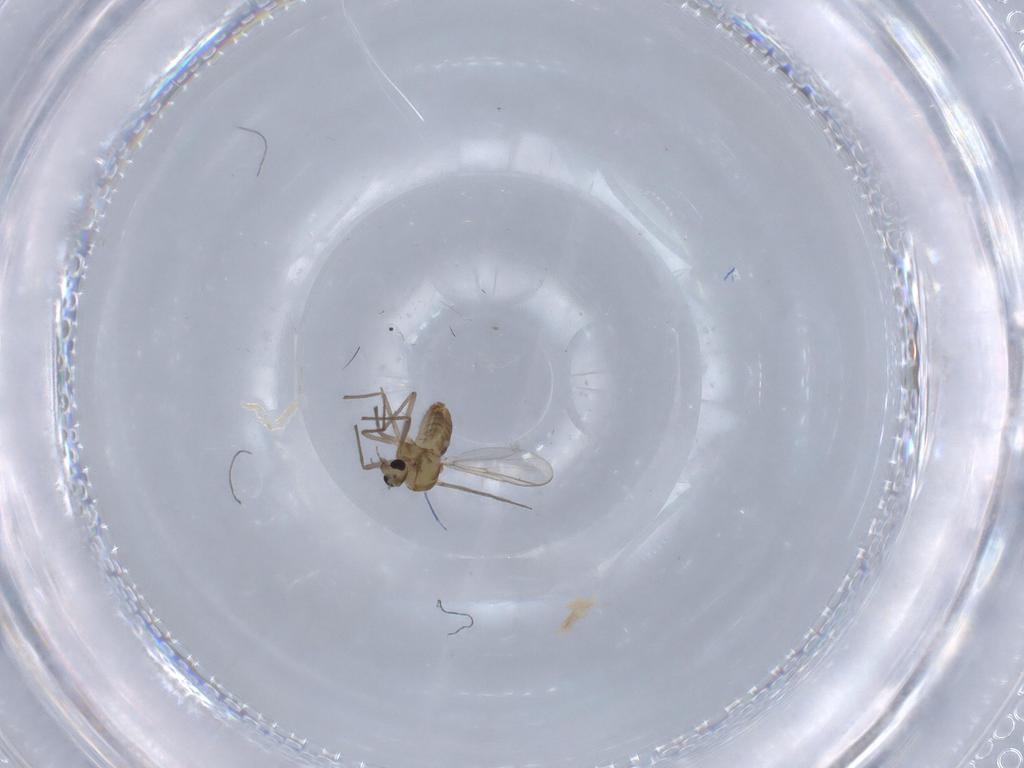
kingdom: Animalia
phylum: Arthropoda
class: Insecta
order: Diptera
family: Chironomidae
